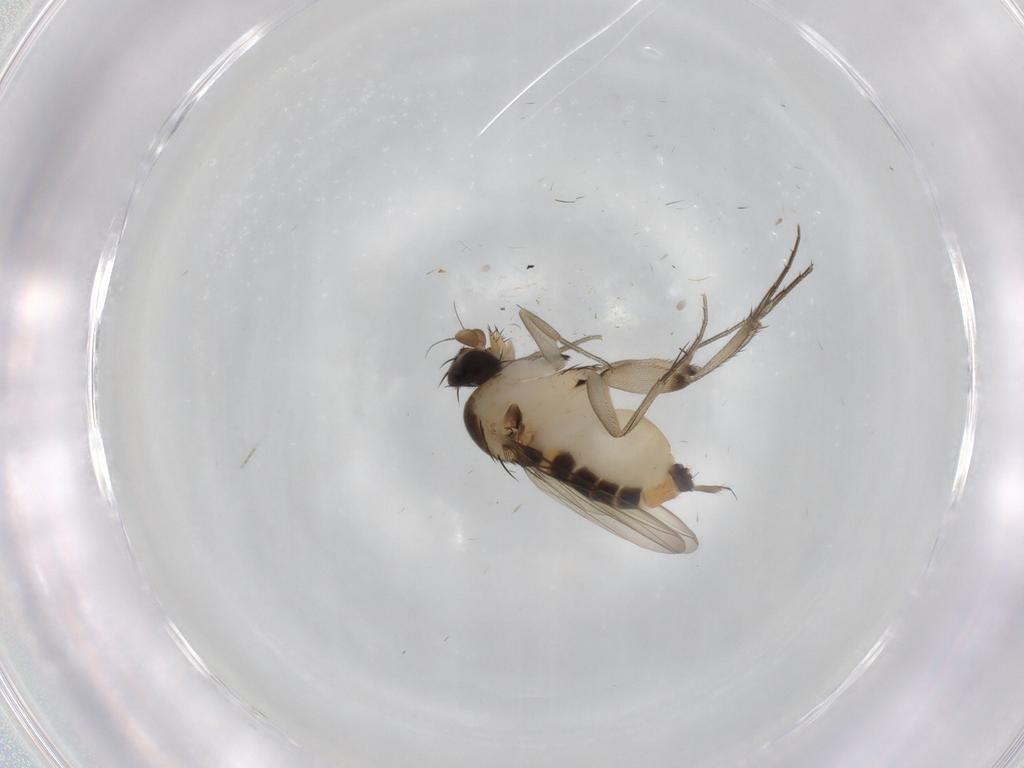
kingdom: Animalia
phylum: Arthropoda
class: Insecta
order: Diptera
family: Phoridae
